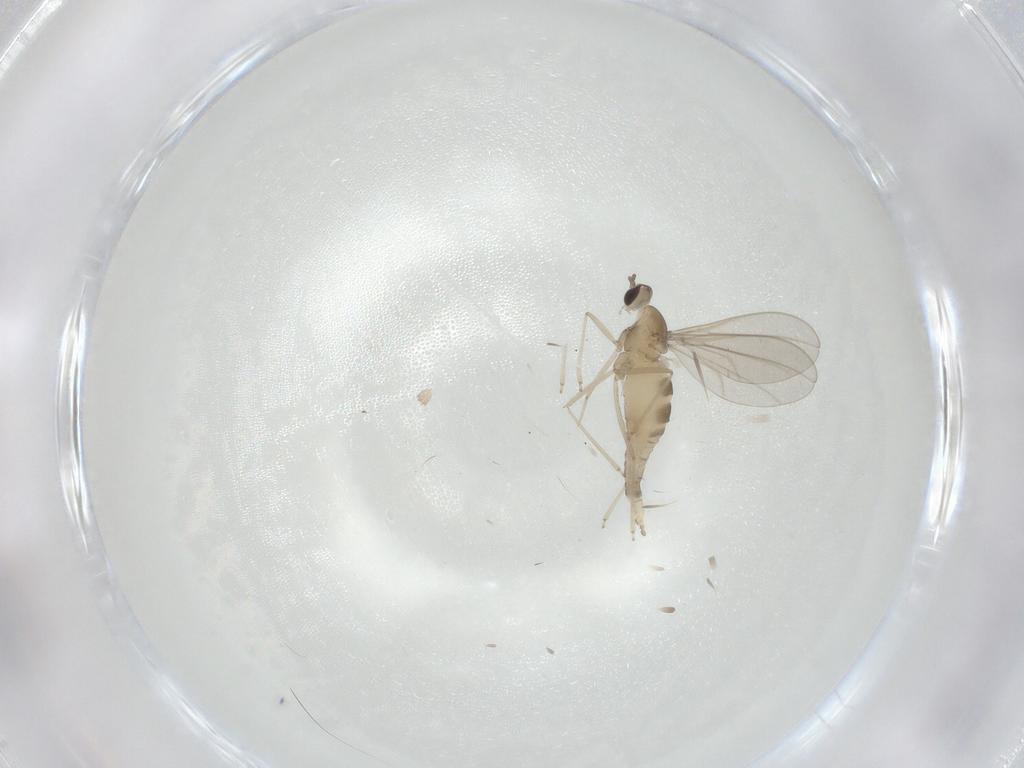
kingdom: Animalia
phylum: Arthropoda
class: Insecta
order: Diptera
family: Cecidomyiidae
